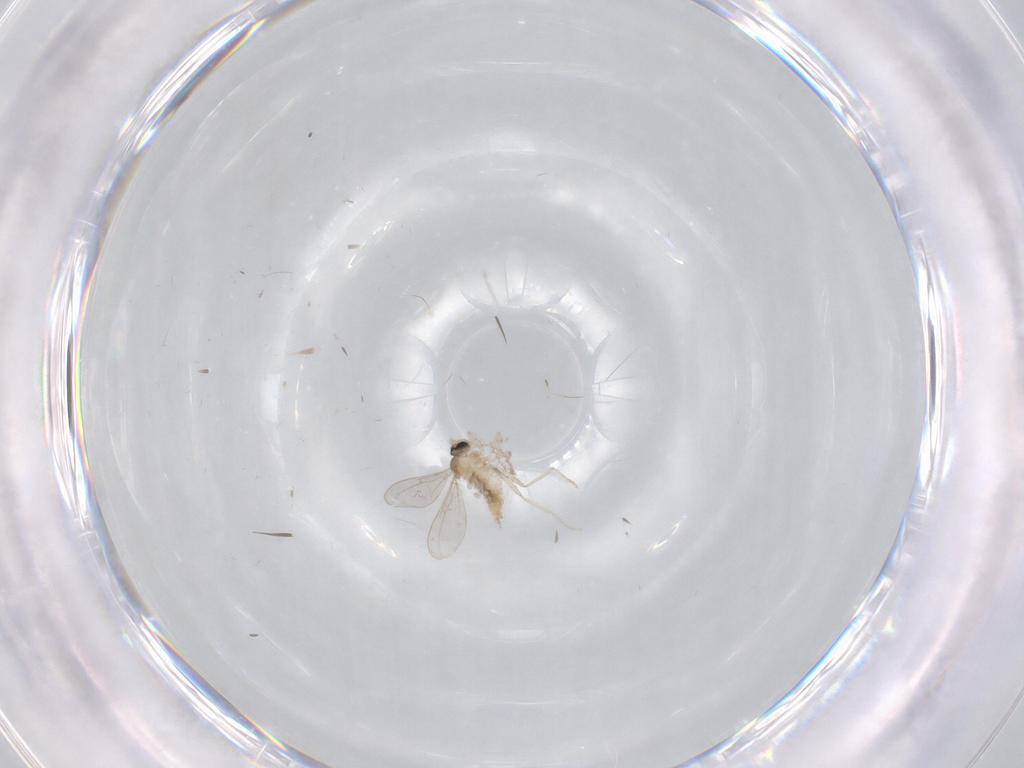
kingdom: Animalia
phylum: Arthropoda
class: Insecta
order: Diptera
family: Cecidomyiidae
